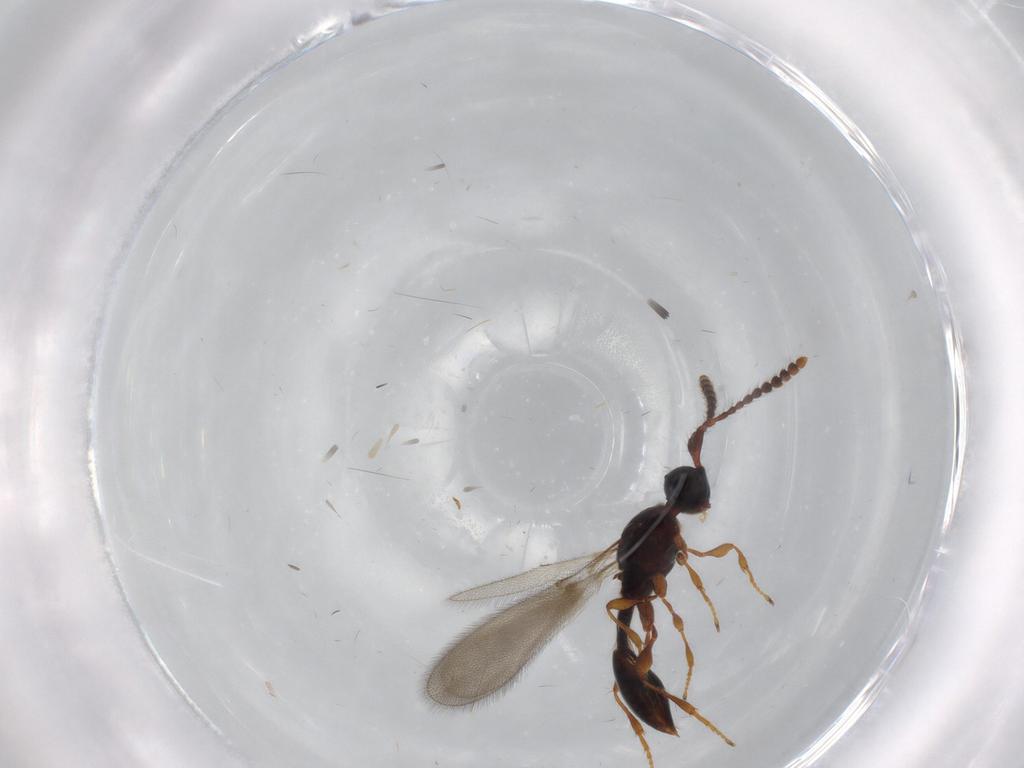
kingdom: Animalia
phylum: Arthropoda
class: Insecta
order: Hymenoptera
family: Diapriidae
